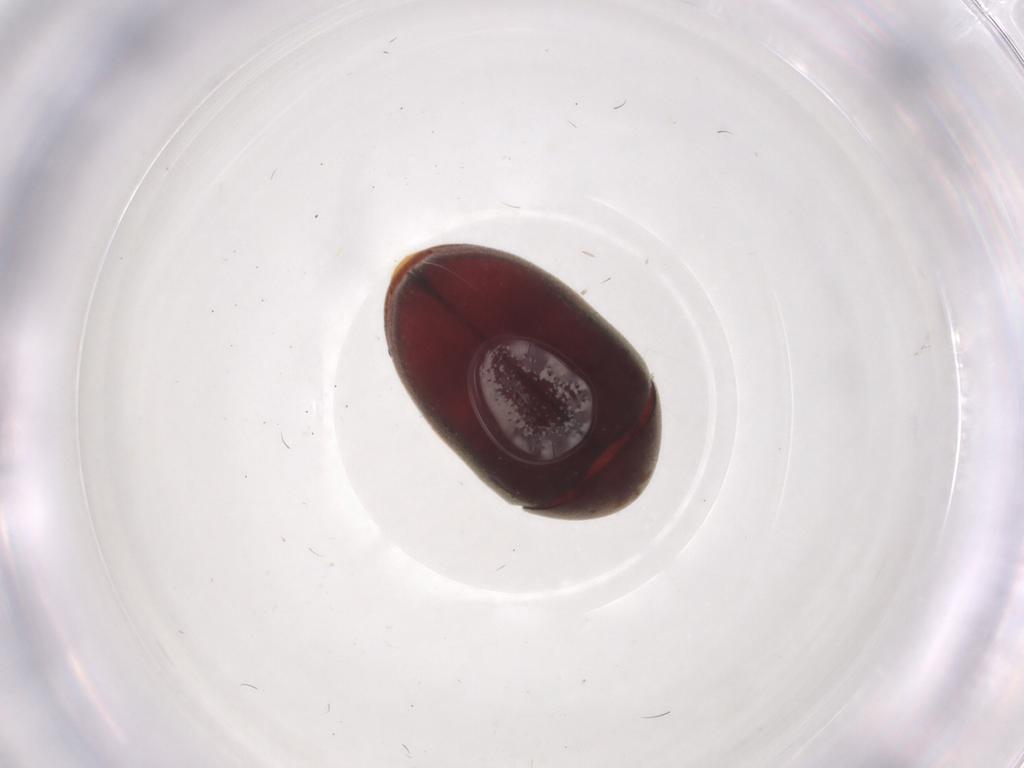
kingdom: Animalia
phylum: Arthropoda
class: Insecta
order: Coleoptera
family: Ptinidae
